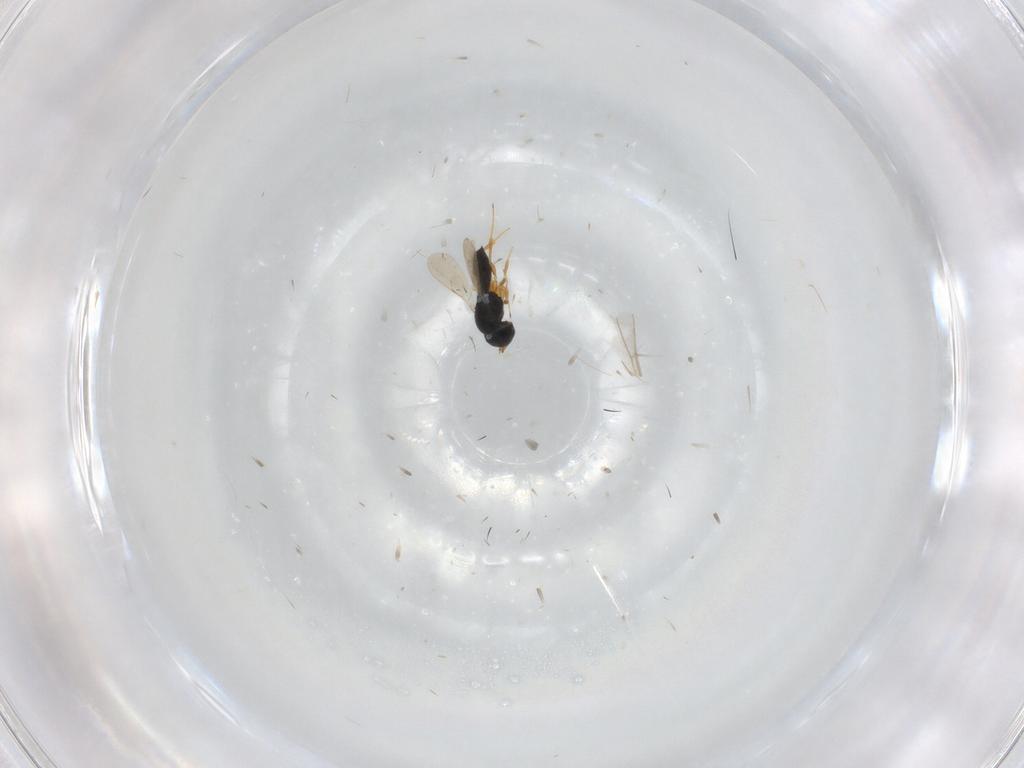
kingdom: Animalia
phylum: Arthropoda
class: Insecta
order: Hymenoptera
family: Scelionidae
